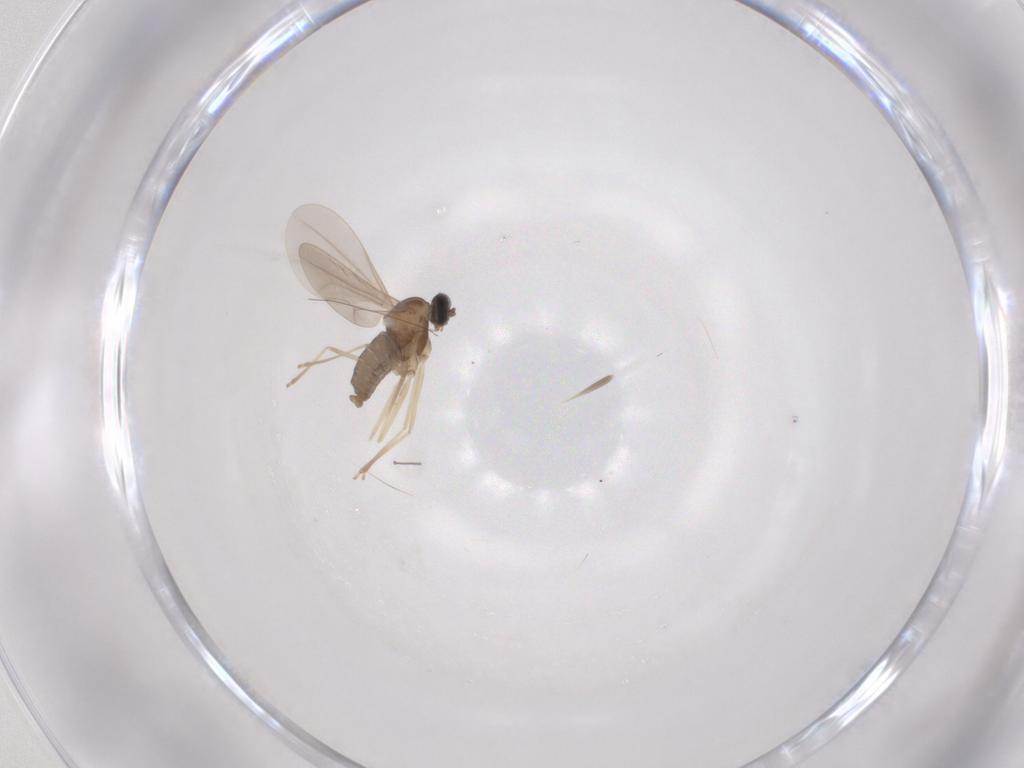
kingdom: Animalia
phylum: Arthropoda
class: Insecta
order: Diptera
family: Cecidomyiidae
